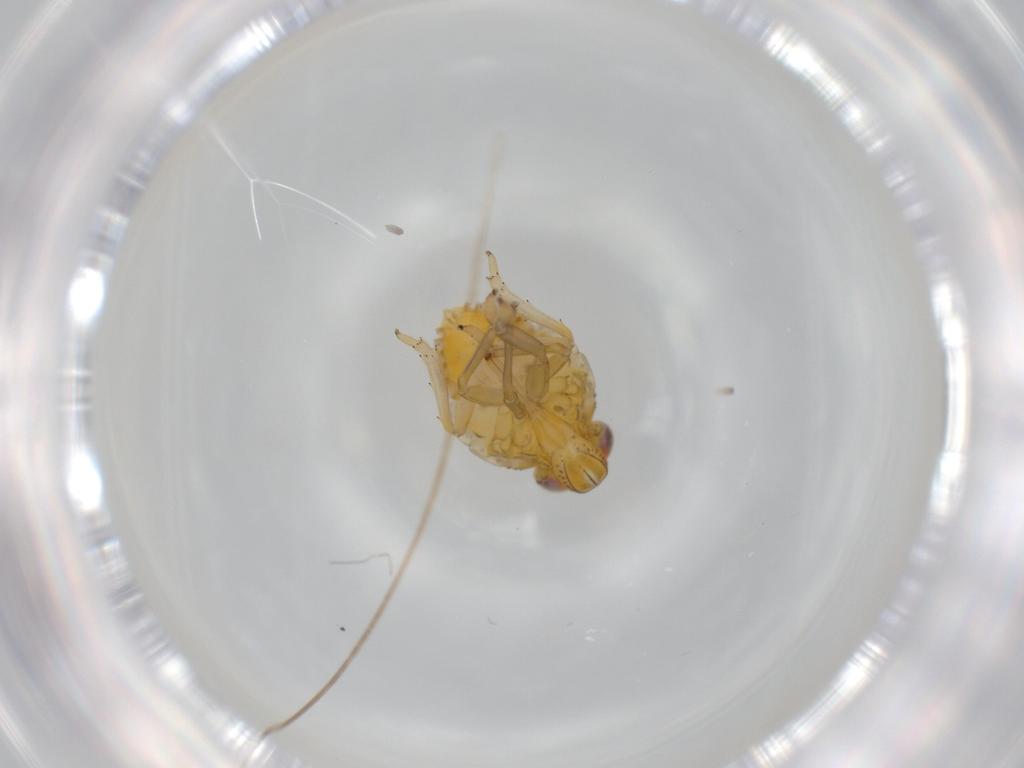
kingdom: Animalia
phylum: Arthropoda
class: Insecta
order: Hemiptera
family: Issidae
